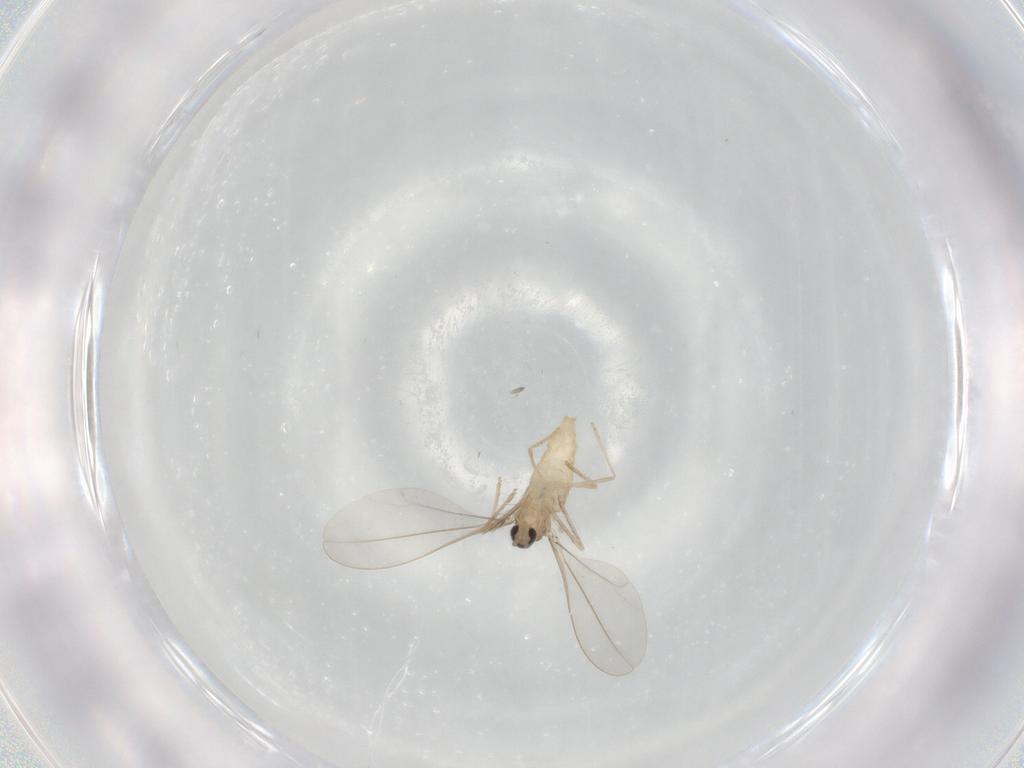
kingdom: Animalia
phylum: Arthropoda
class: Insecta
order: Diptera
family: Cecidomyiidae
